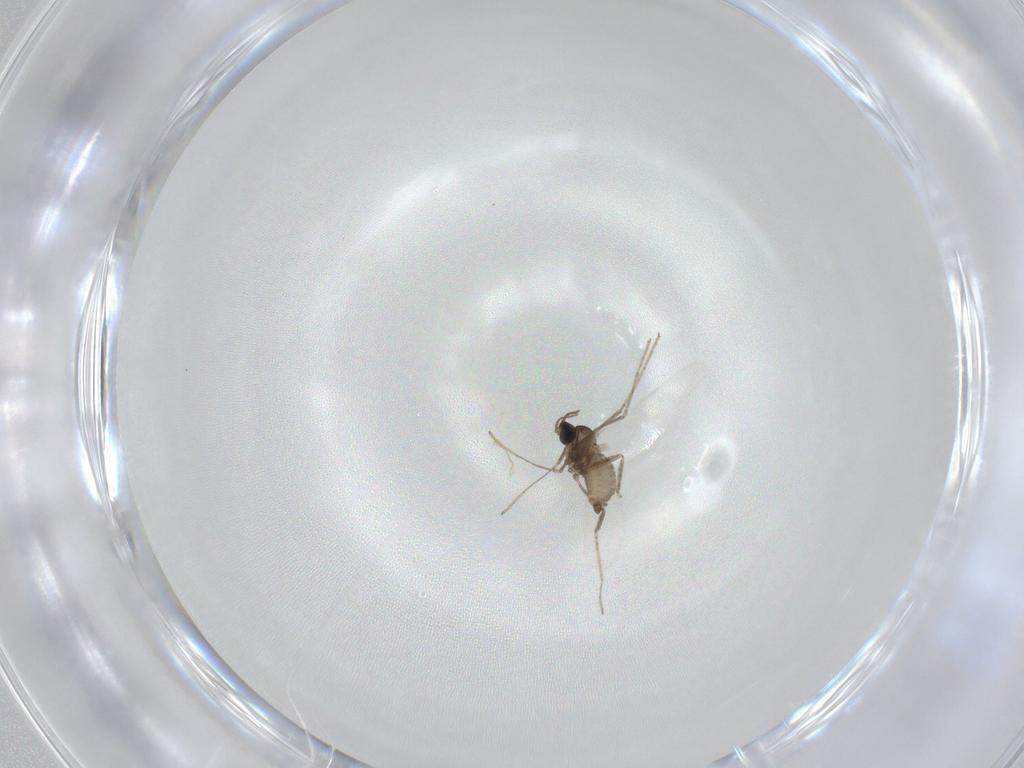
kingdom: Animalia
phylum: Arthropoda
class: Insecta
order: Diptera
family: Cecidomyiidae
